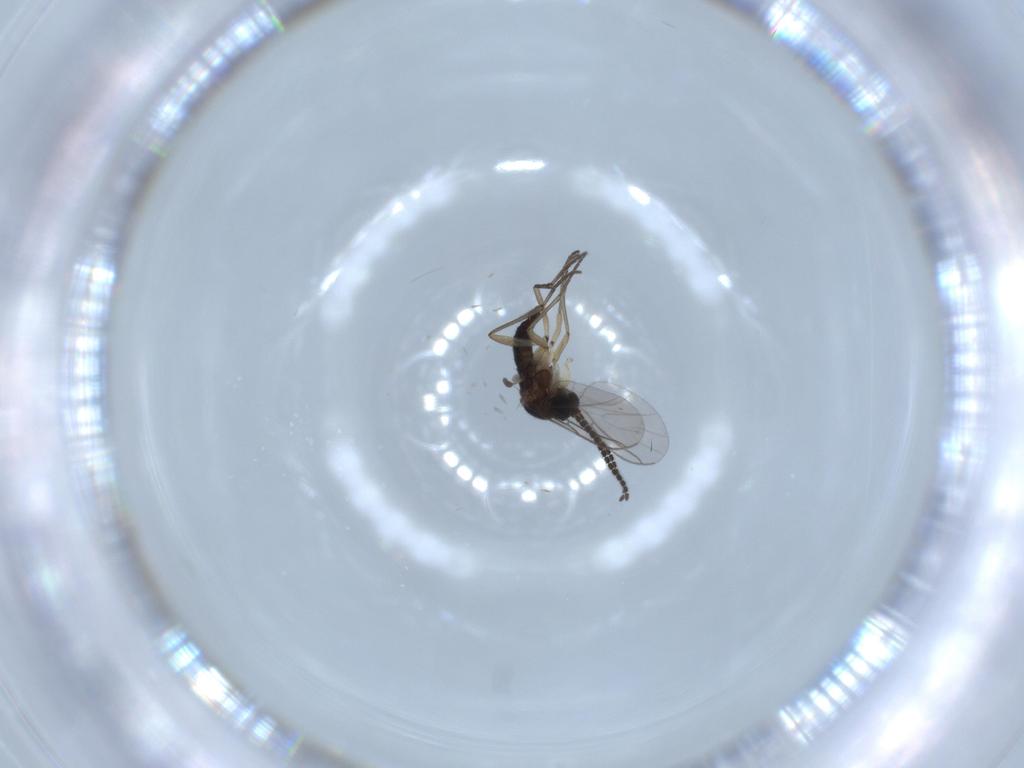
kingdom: Animalia
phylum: Arthropoda
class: Insecta
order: Diptera
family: Sciaridae
